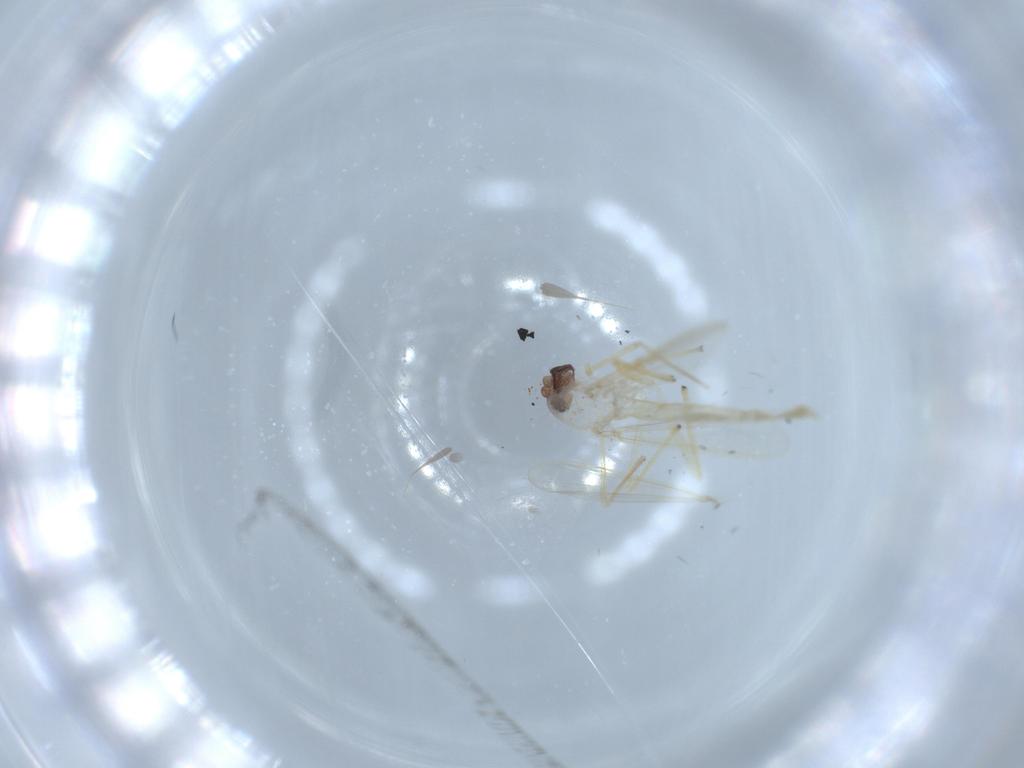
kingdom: Animalia
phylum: Arthropoda
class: Insecta
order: Diptera
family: Chironomidae
